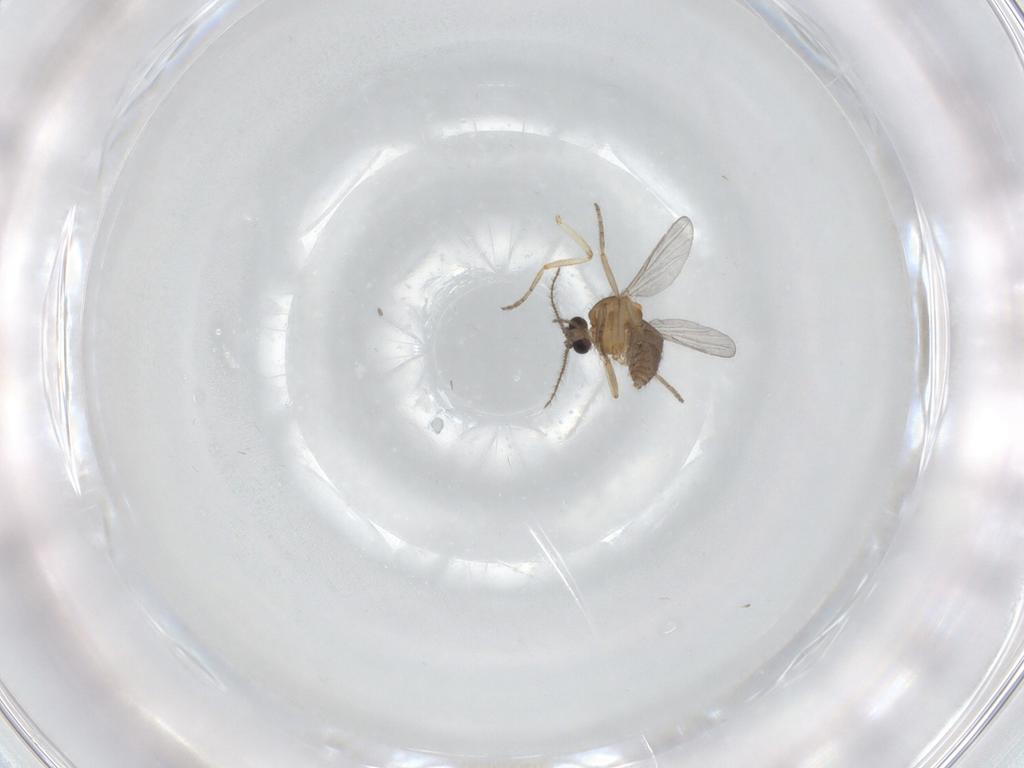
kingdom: Animalia
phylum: Arthropoda
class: Insecta
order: Diptera
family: Ceratopogonidae
